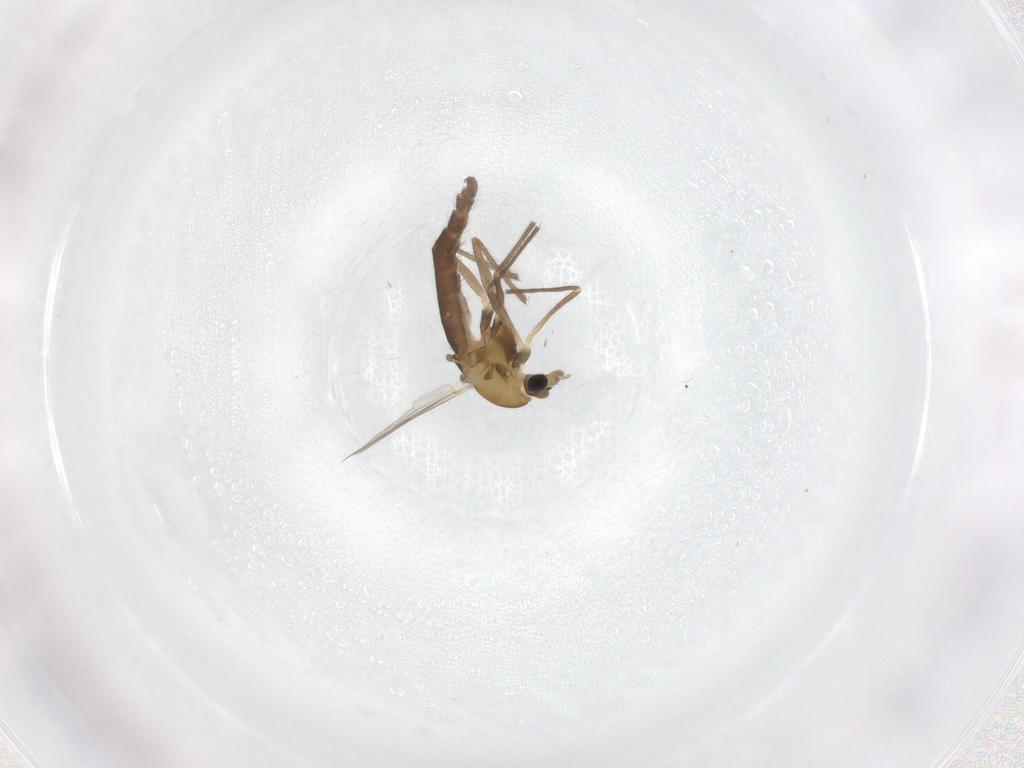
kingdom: Animalia
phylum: Arthropoda
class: Insecta
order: Diptera
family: Chironomidae
